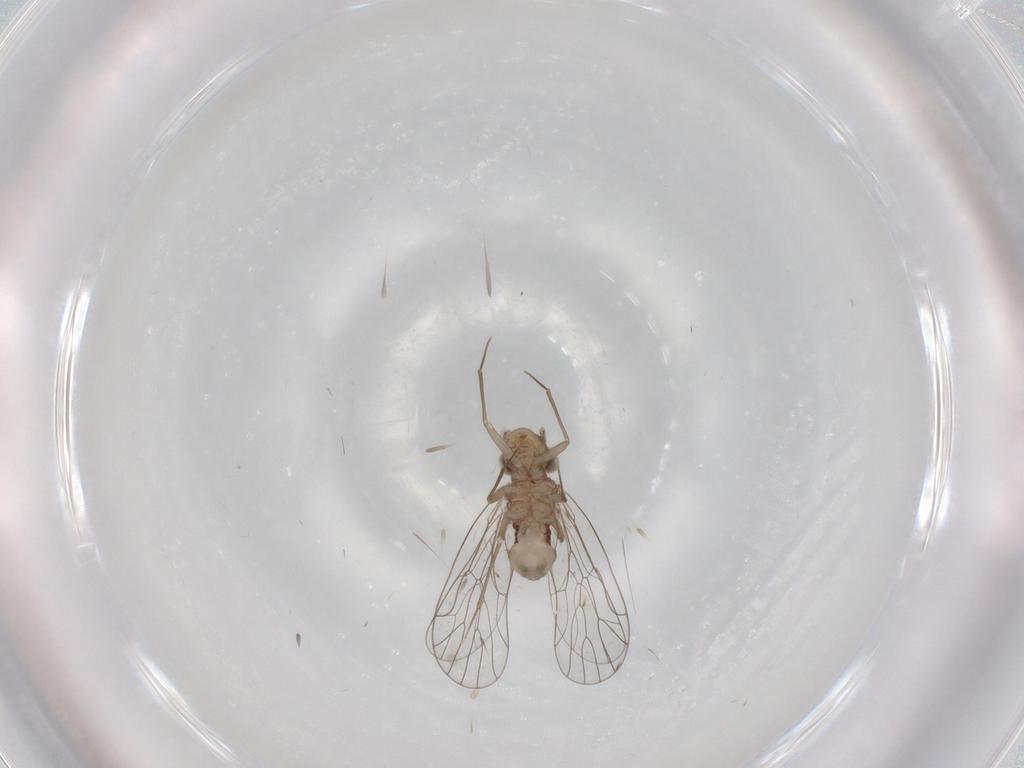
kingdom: Animalia
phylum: Arthropoda
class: Insecta
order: Psocodea
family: Amphientomidae
